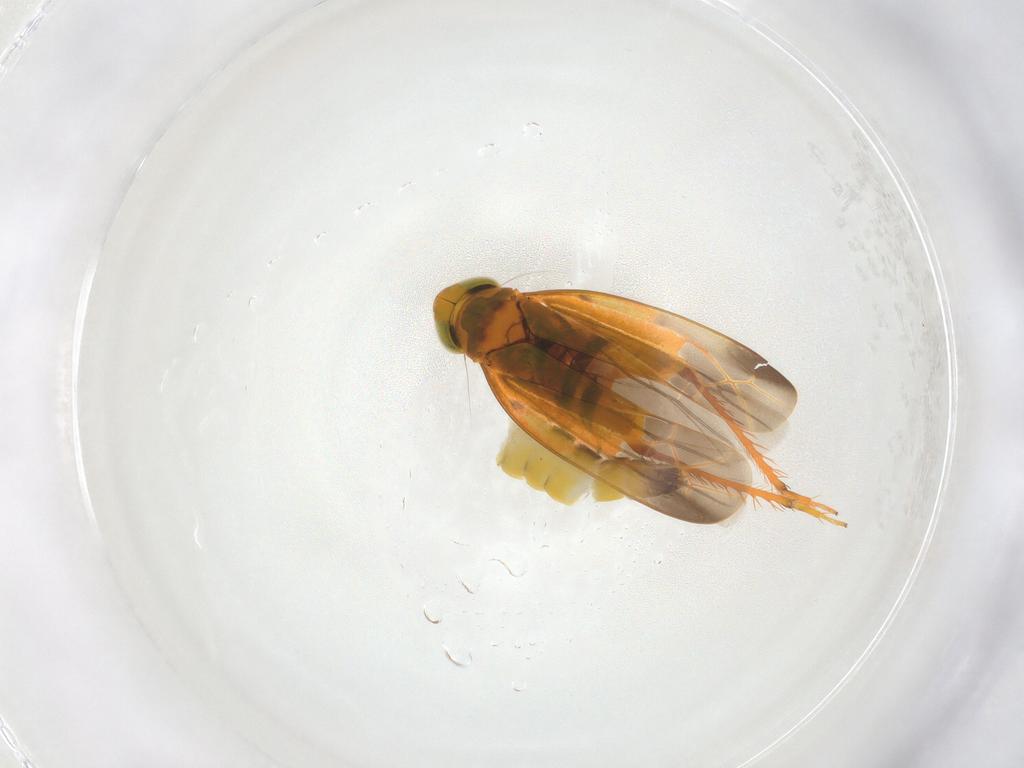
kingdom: Animalia
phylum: Arthropoda
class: Insecta
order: Hemiptera
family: Cicadellidae
